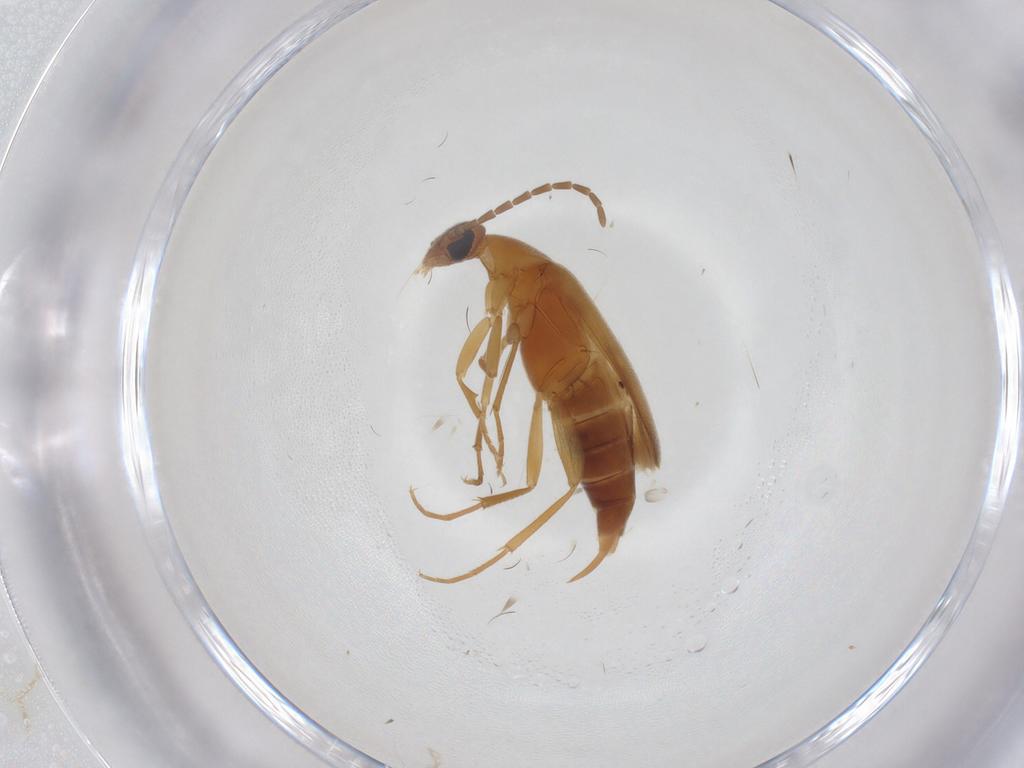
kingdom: Animalia
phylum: Arthropoda
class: Insecta
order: Coleoptera
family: Scraptiidae
